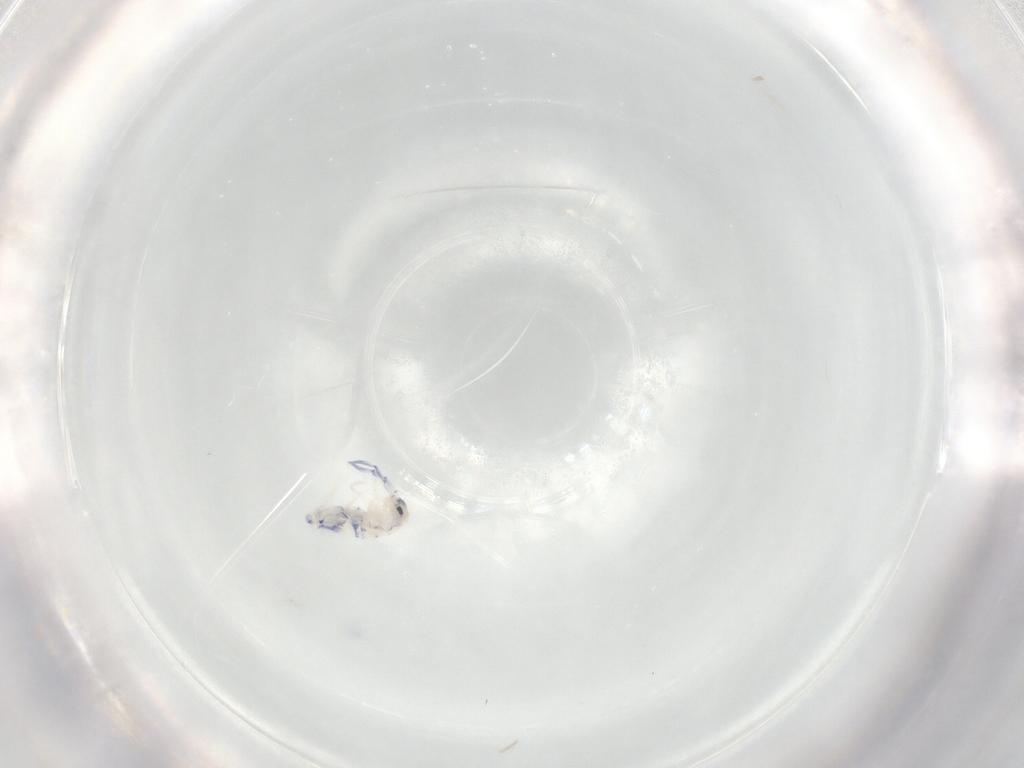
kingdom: Animalia
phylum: Arthropoda
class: Collembola
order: Entomobryomorpha
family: Entomobryidae
